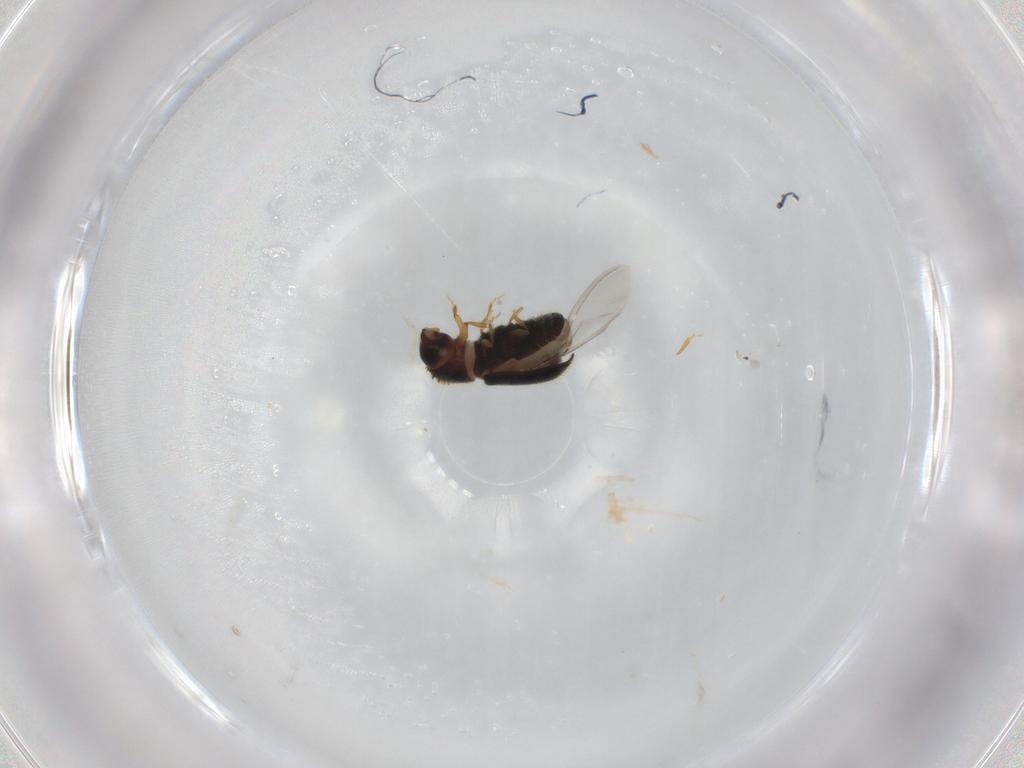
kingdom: Animalia
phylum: Arthropoda
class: Insecta
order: Coleoptera
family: Curculionidae
